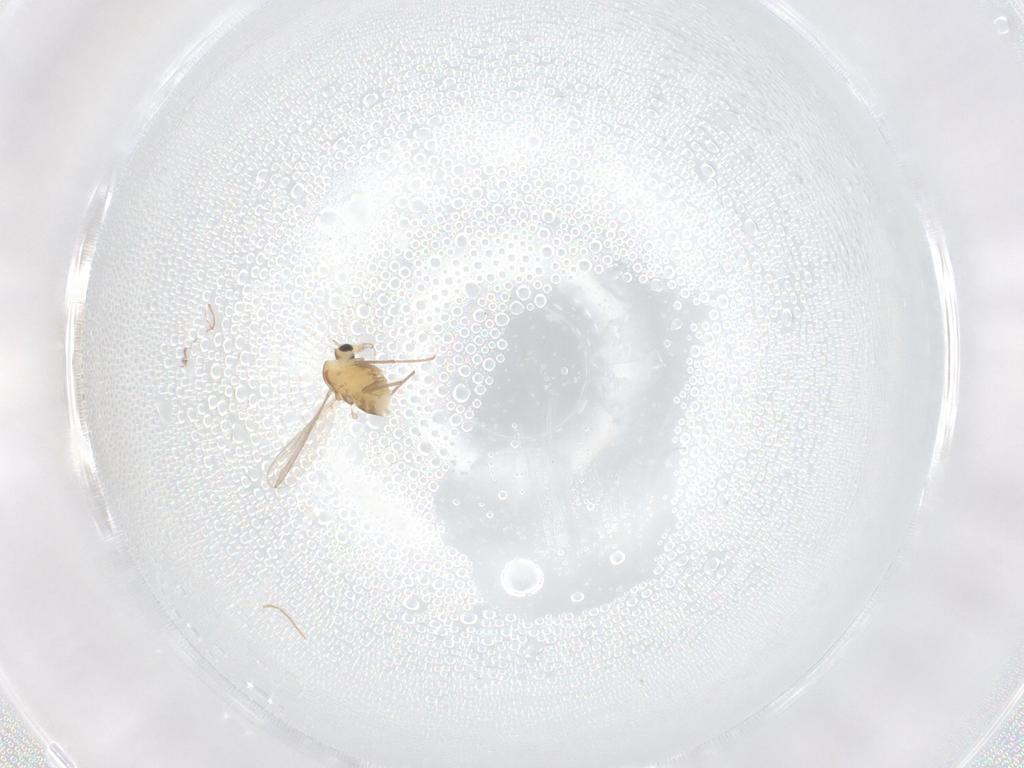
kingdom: Animalia
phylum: Arthropoda
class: Insecta
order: Diptera
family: Chironomidae
